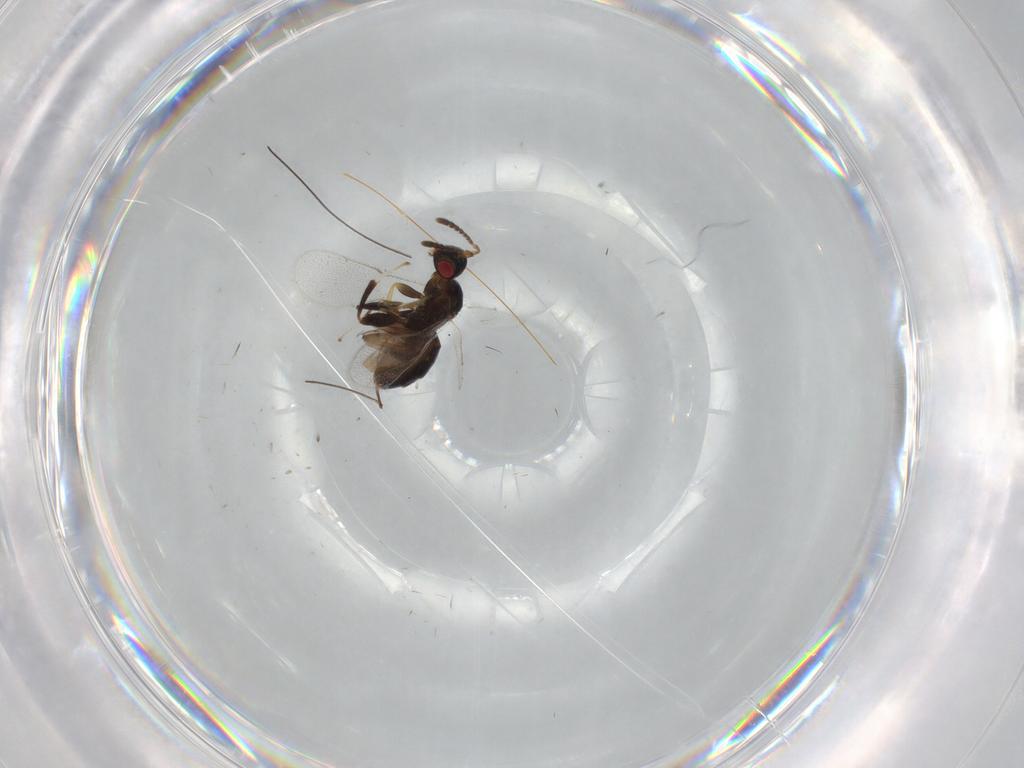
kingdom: Animalia
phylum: Arthropoda
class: Insecta
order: Hymenoptera
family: Torymidae
